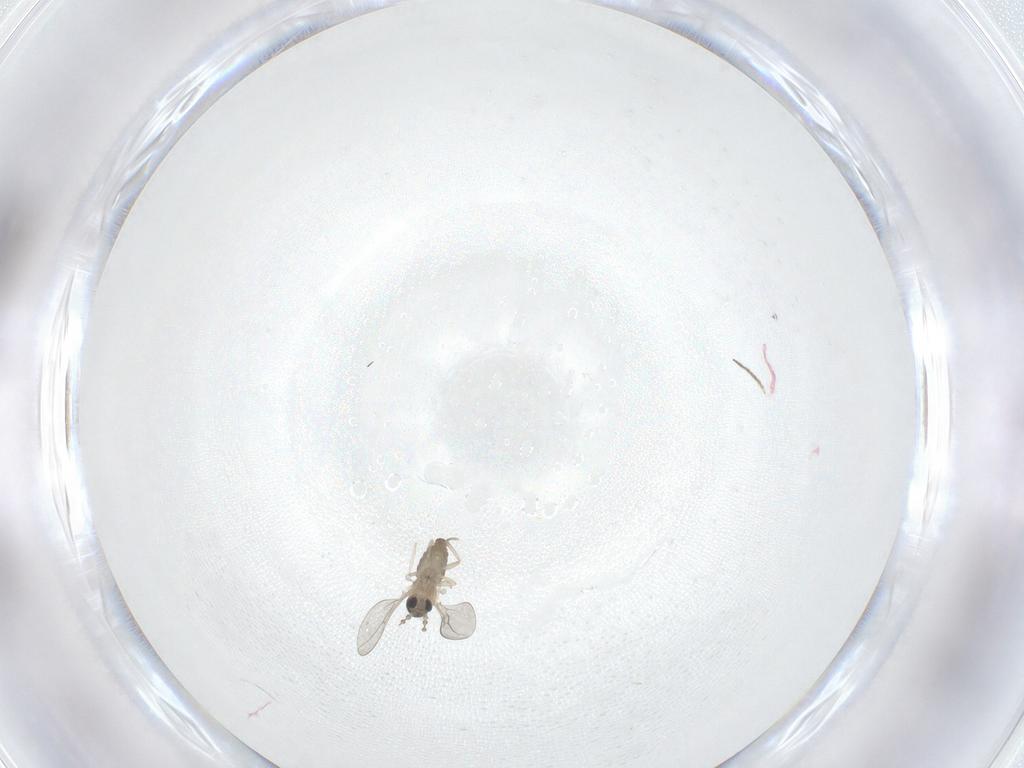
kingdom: Animalia
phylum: Arthropoda
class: Insecta
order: Diptera
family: Cecidomyiidae
